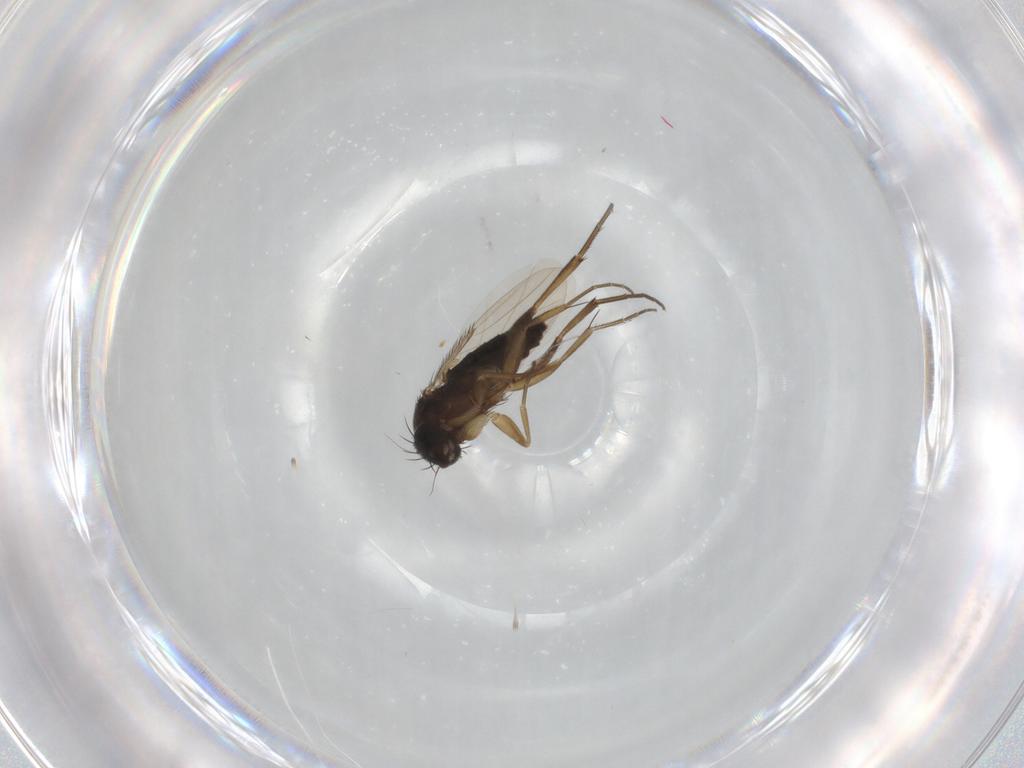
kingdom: Animalia
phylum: Arthropoda
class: Insecta
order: Diptera
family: Phoridae
